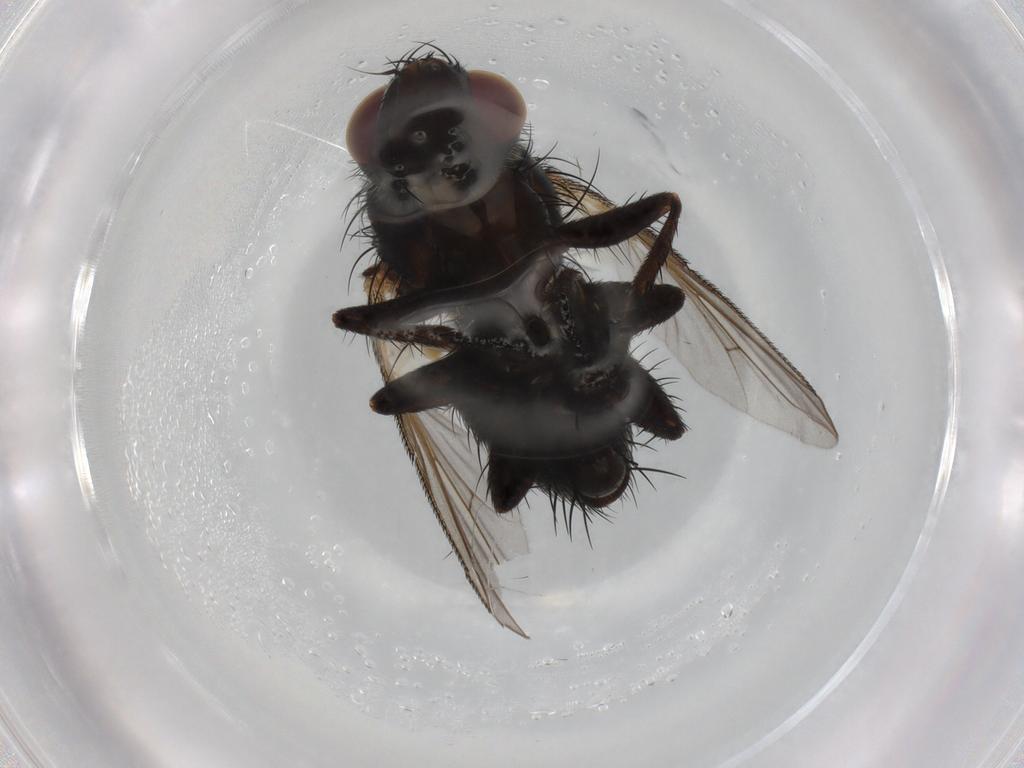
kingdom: Animalia
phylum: Arthropoda
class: Insecta
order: Diptera
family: Tachinidae
